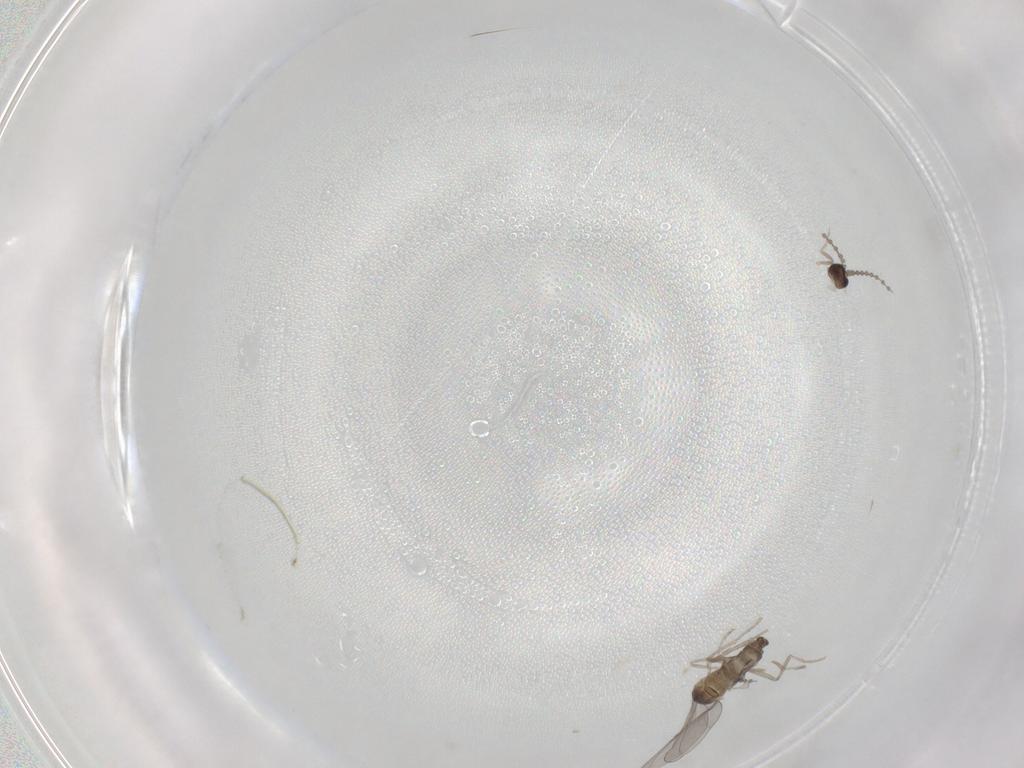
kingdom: Animalia
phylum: Arthropoda
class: Insecta
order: Diptera
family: Cecidomyiidae
